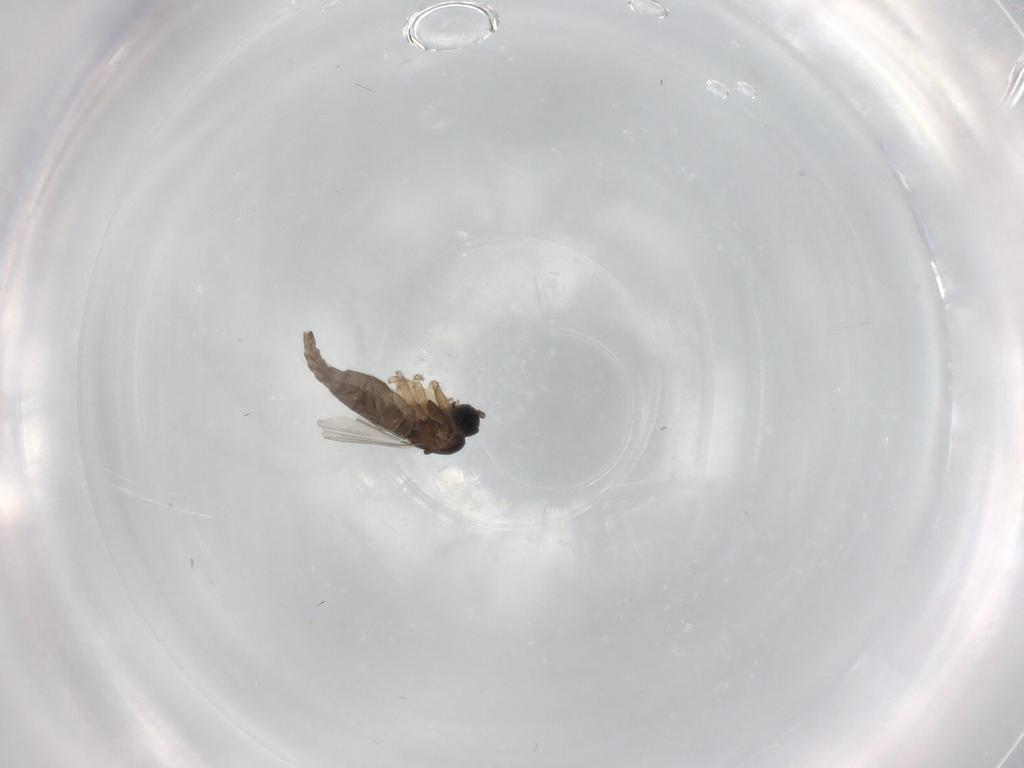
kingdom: Animalia
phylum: Arthropoda
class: Insecta
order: Diptera
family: Sciaridae
